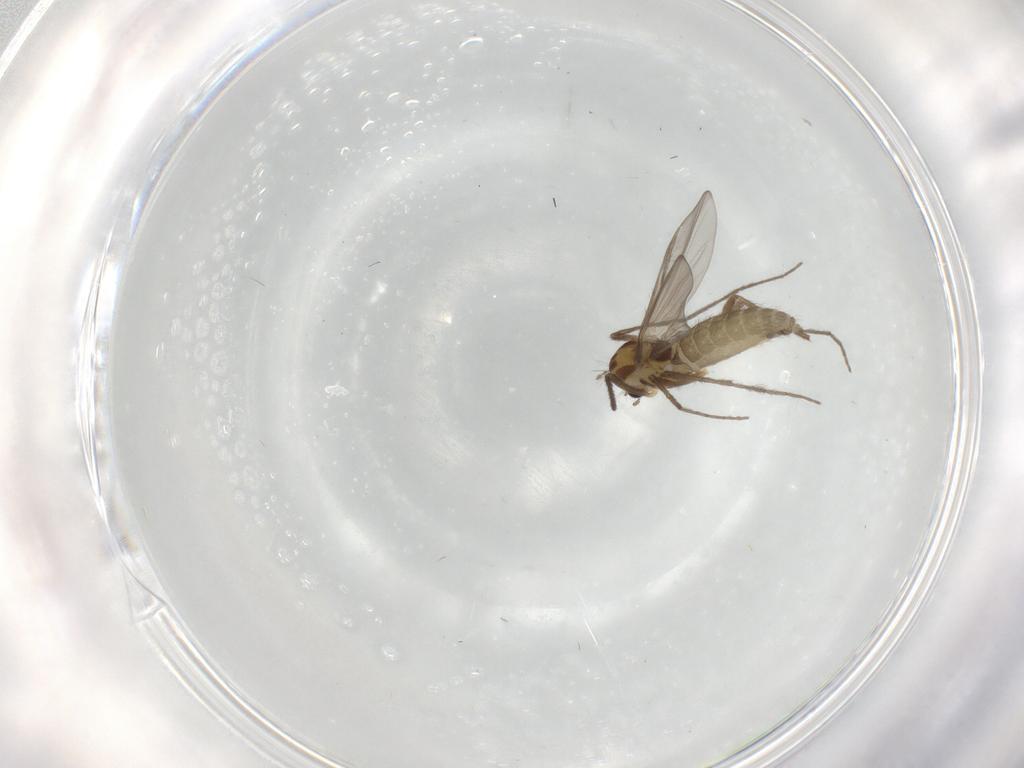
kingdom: Animalia
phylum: Arthropoda
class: Insecta
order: Diptera
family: Chironomidae
